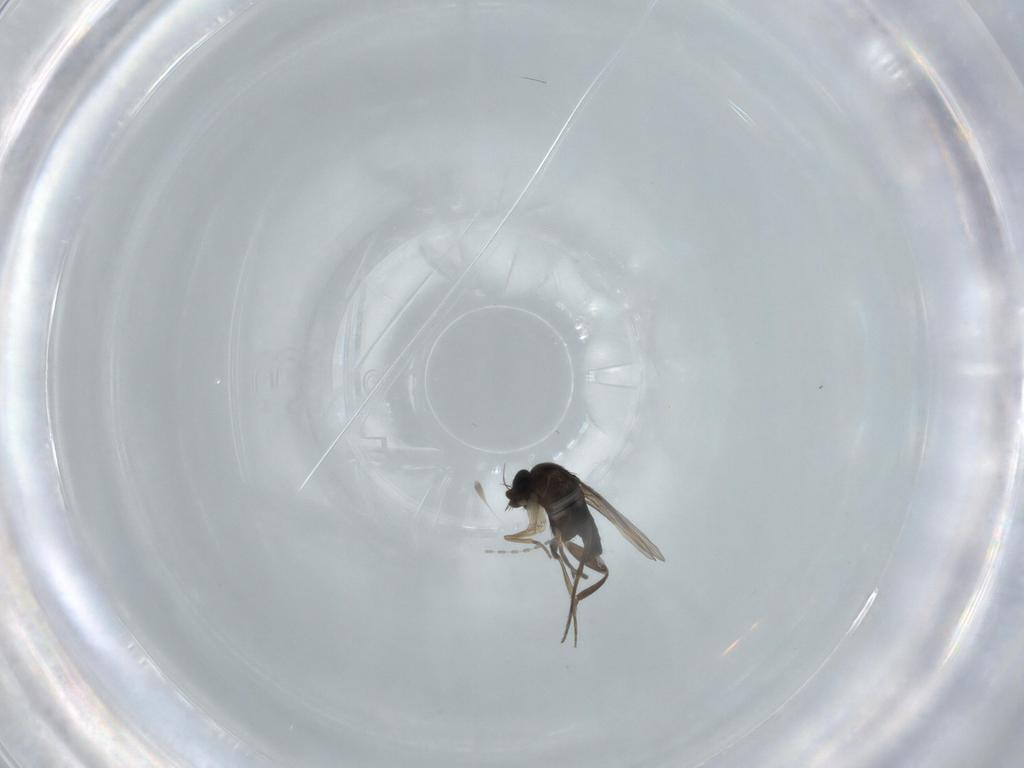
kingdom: Animalia
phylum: Arthropoda
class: Insecta
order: Diptera
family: Phoridae
